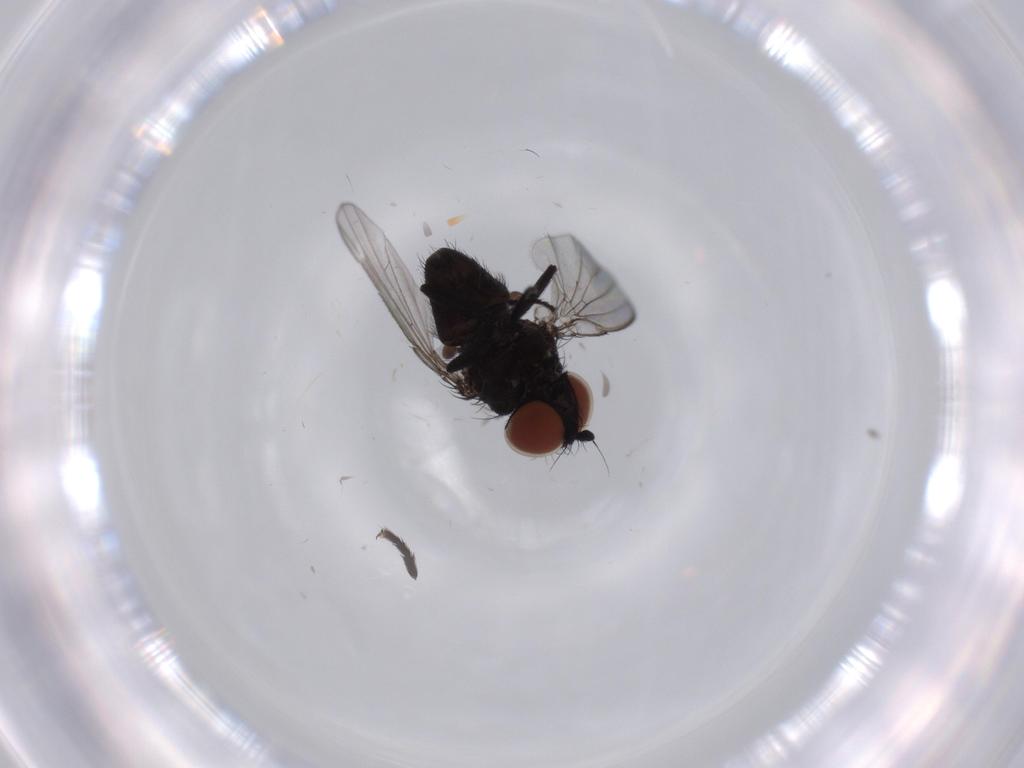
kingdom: Animalia
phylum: Arthropoda
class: Insecta
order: Diptera
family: Milichiidae
